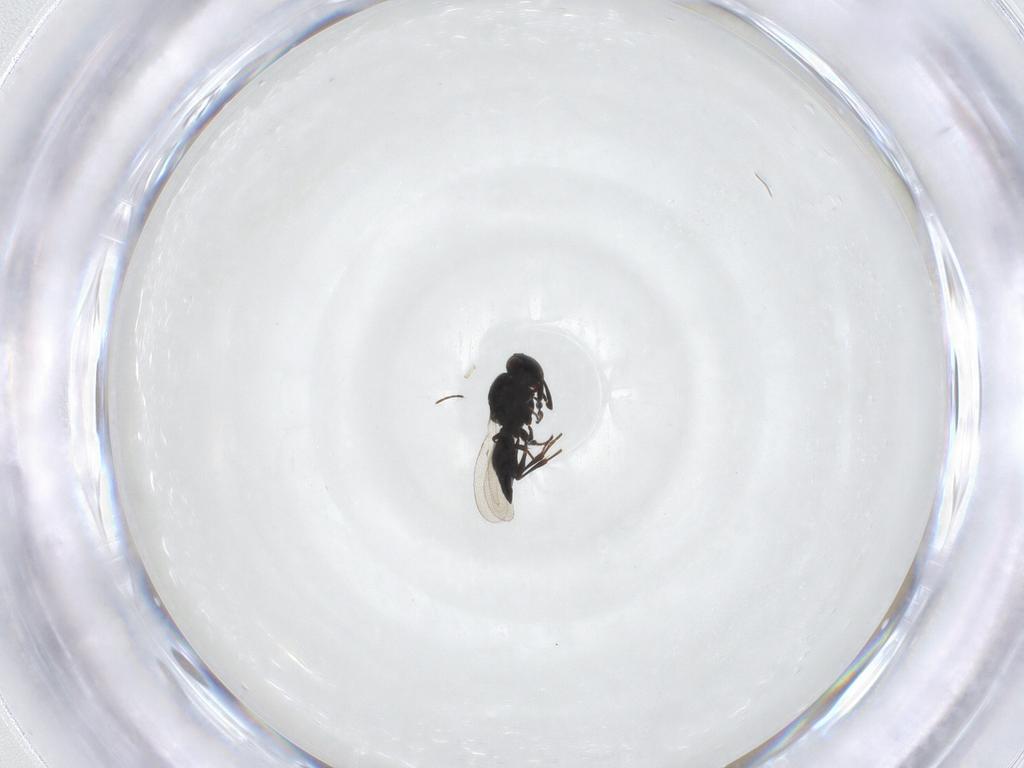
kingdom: Animalia
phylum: Arthropoda
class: Insecta
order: Diptera
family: Mythicomyiidae
